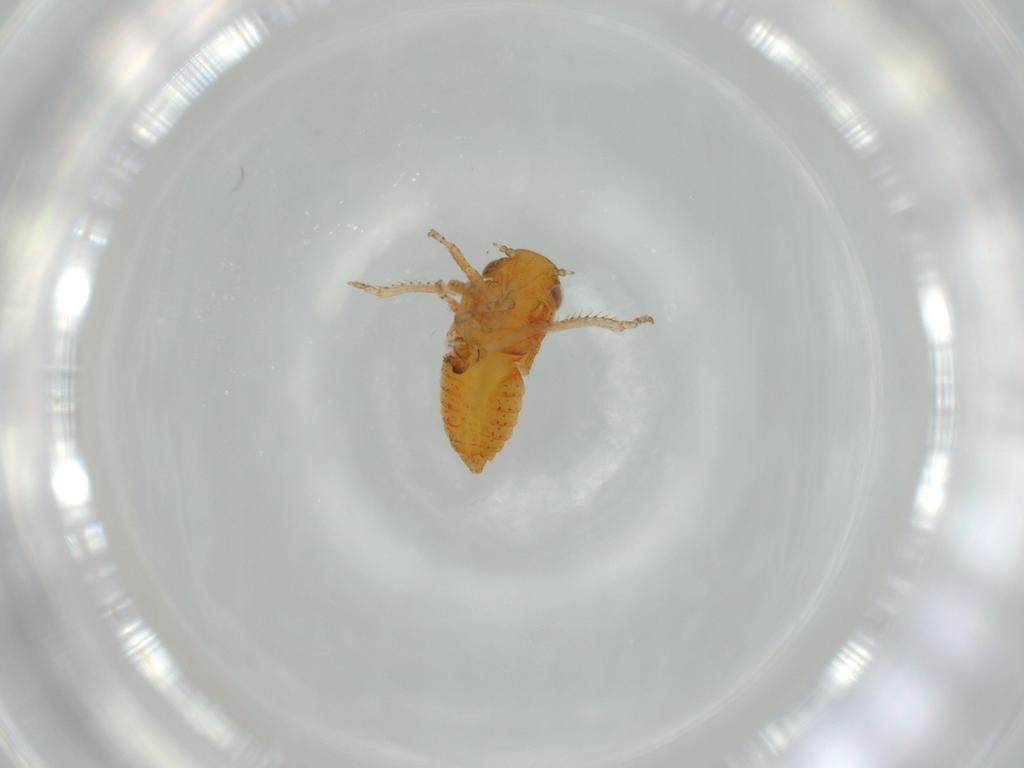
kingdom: Animalia
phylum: Arthropoda
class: Insecta
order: Hemiptera
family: Cicadellidae
